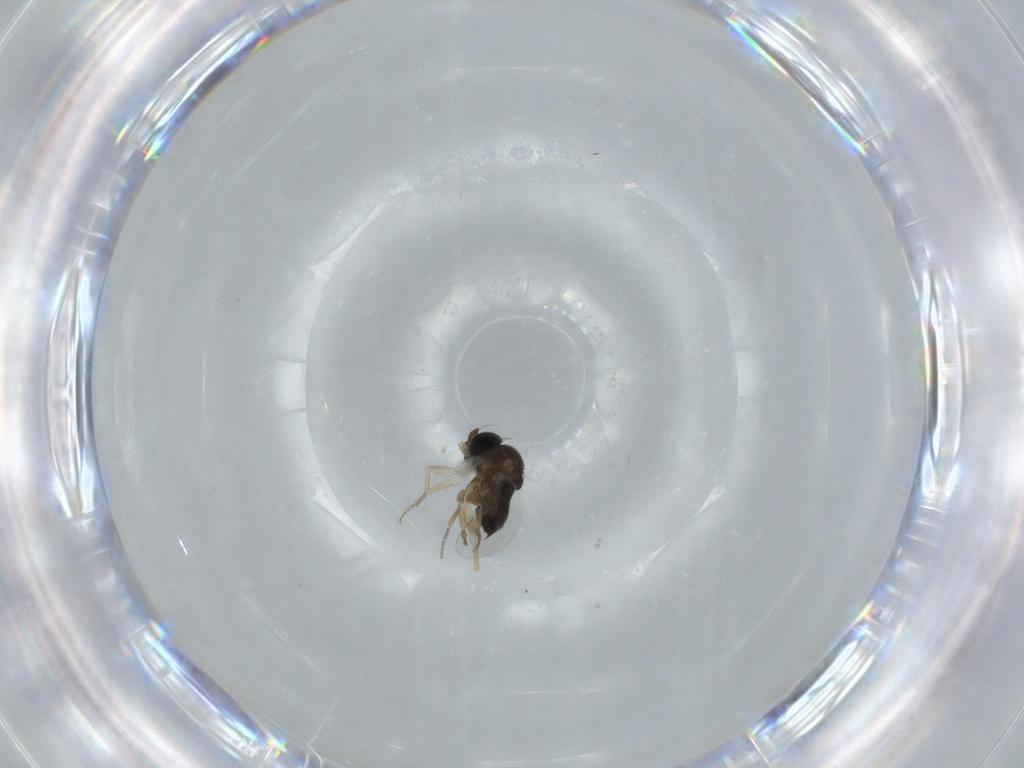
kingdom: Animalia
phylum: Arthropoda
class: Insecta
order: Diptera
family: Phoridae
